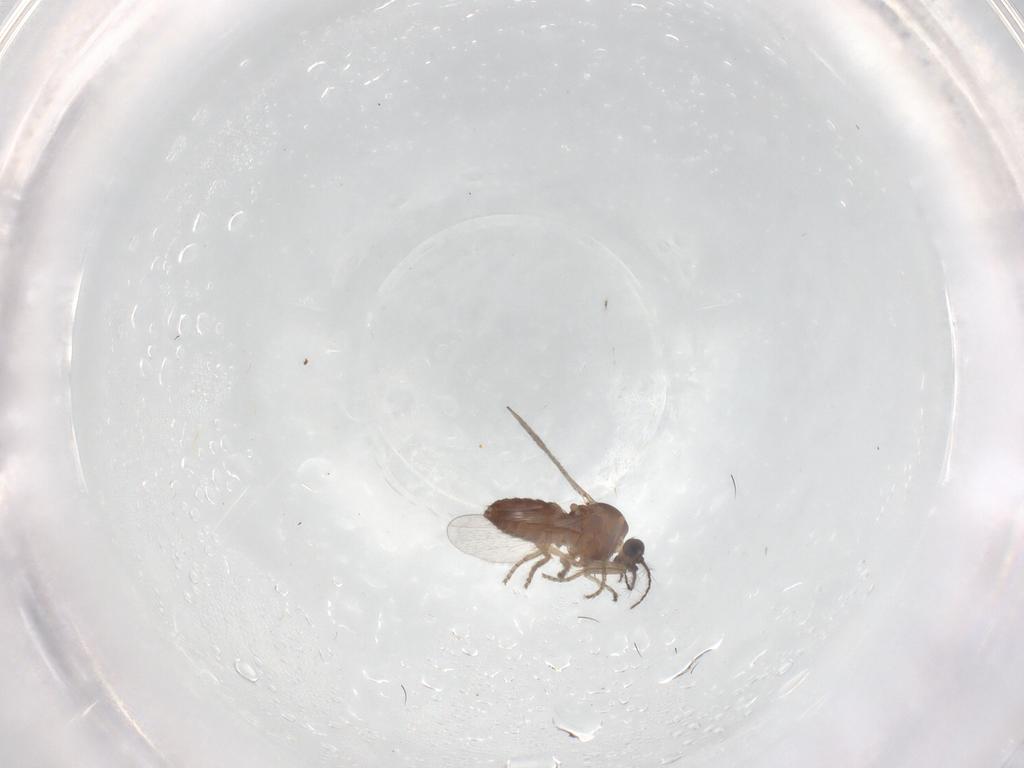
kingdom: Animalia
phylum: Arthropoda
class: Insecta
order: Diptera
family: Ceratopogonidae
